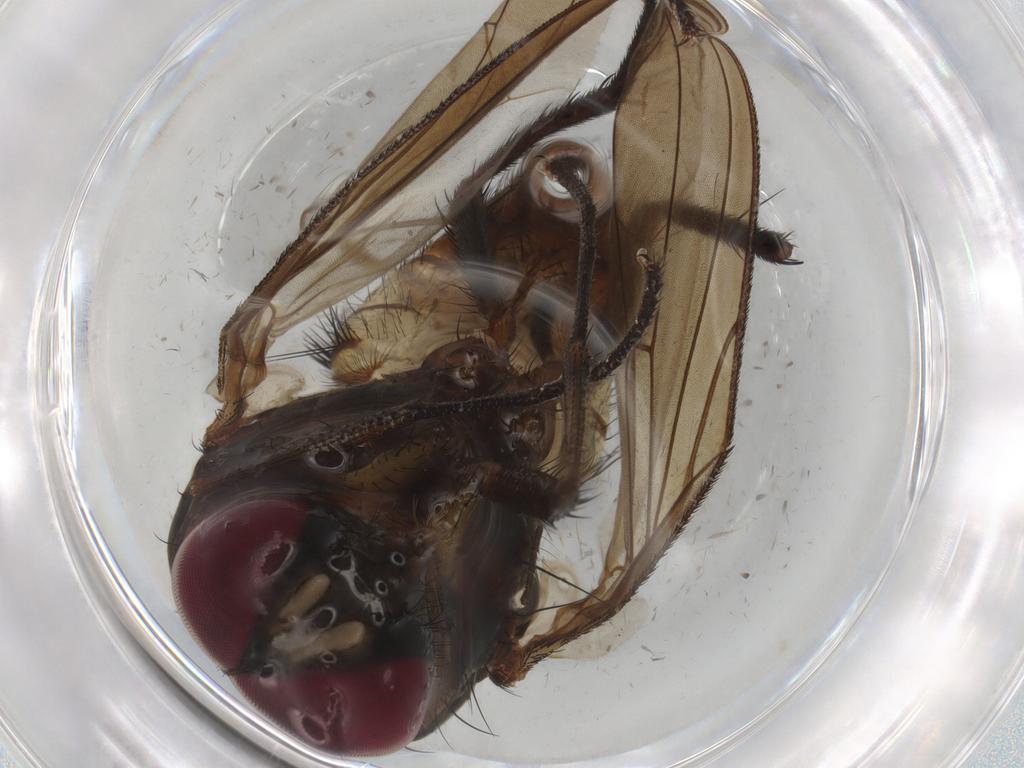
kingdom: Animalia
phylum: Arthropoda
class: Insecta
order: Diptera
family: Anthomyiidae
